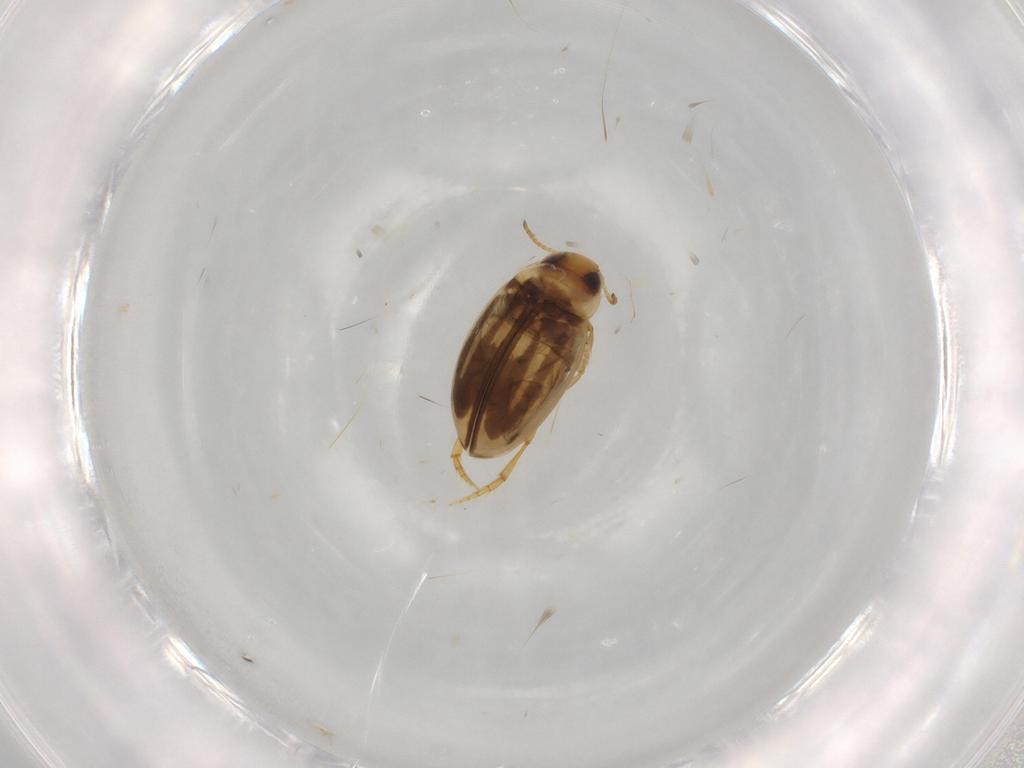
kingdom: Animalia
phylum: Arthropoda
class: Insecta
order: Coleoptera
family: Dytiscidae
